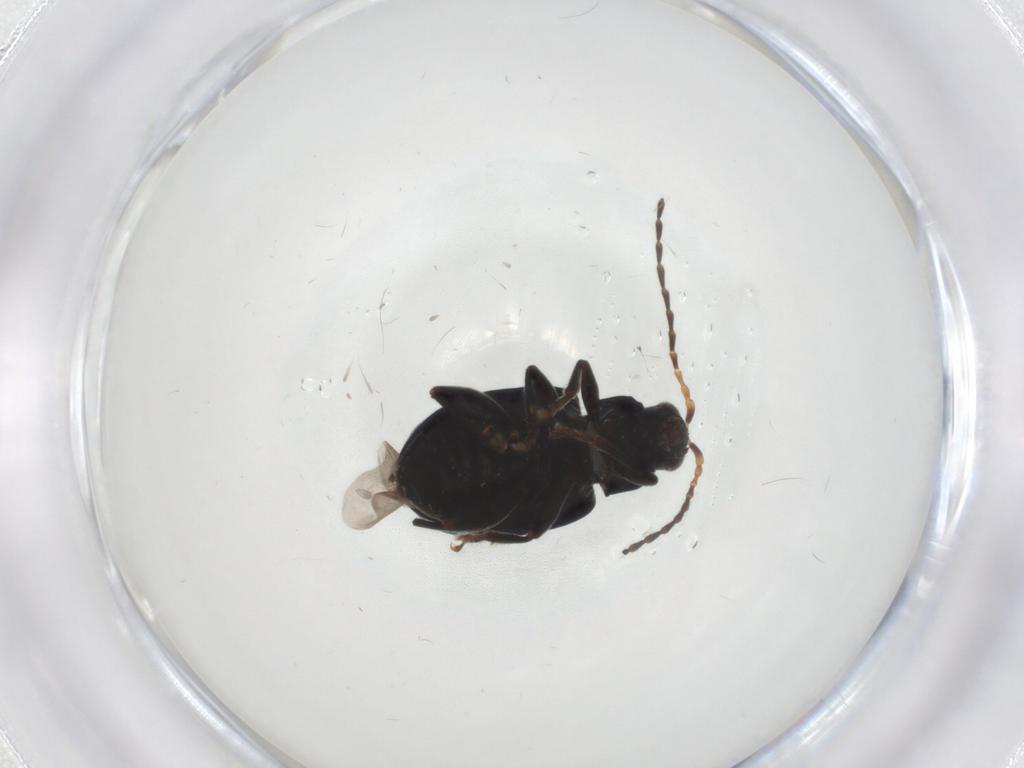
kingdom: Animalia
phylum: Arthropoda
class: Insecta
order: Coleoptera
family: Chrysomelidae
